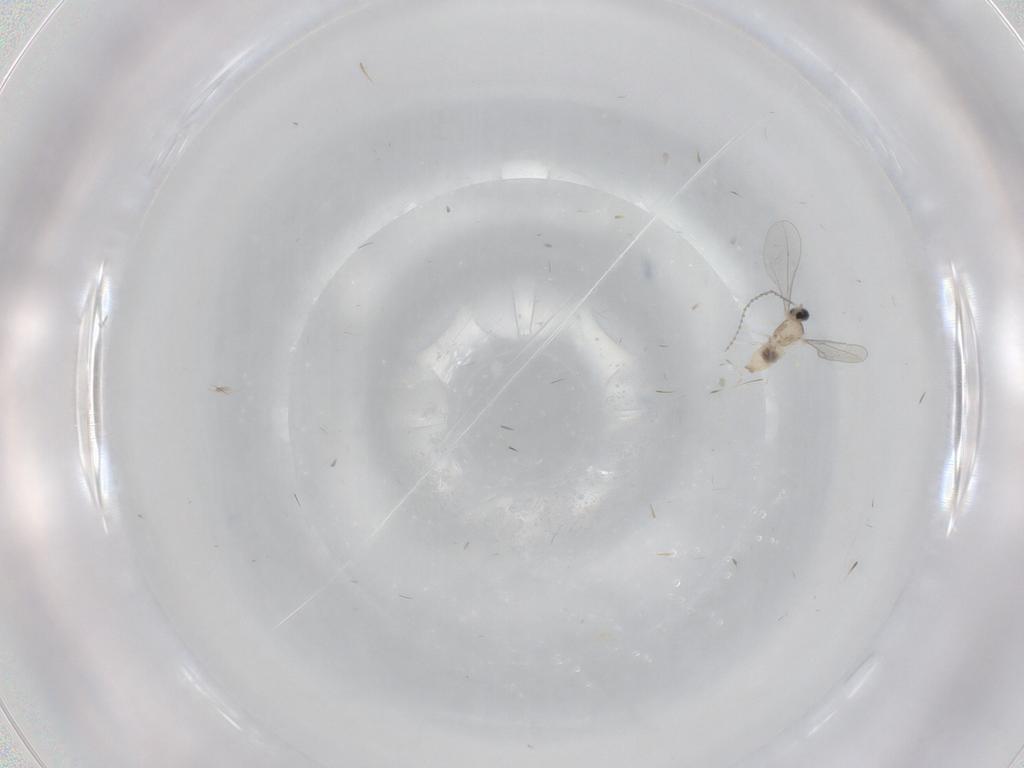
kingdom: Animalia
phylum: Arthropoda
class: Insecta
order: Diptera
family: Cecidomyiidae
